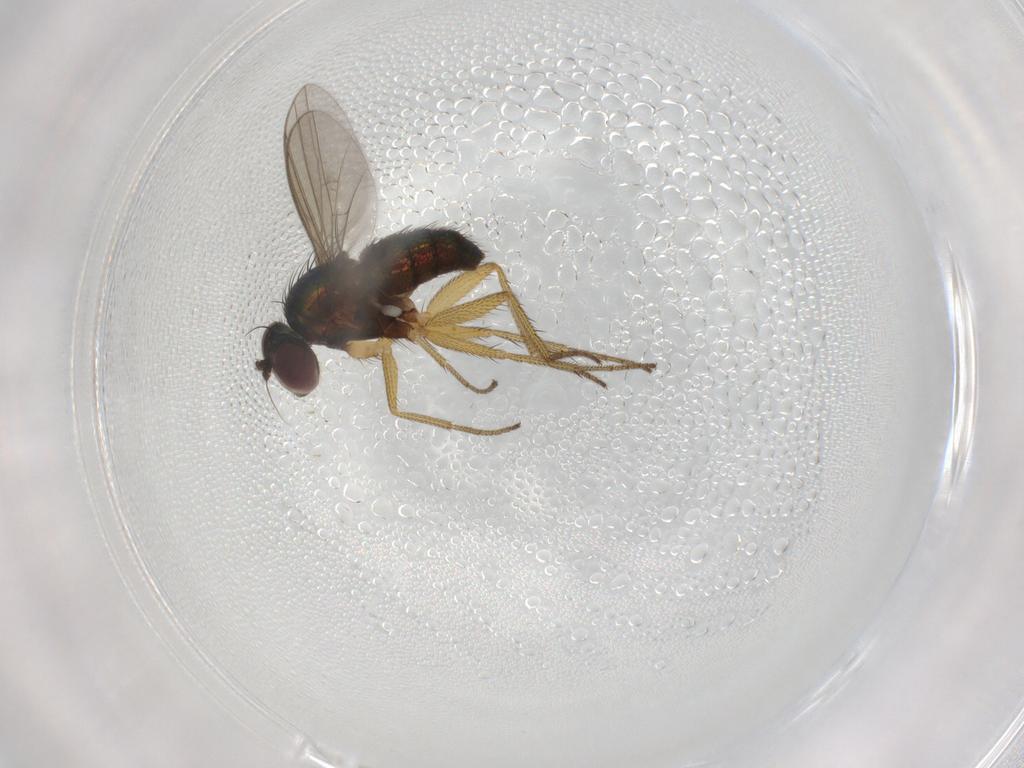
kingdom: Animalia
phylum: Arthropoda
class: Insecta
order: Diptera
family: Dolichopodidae
